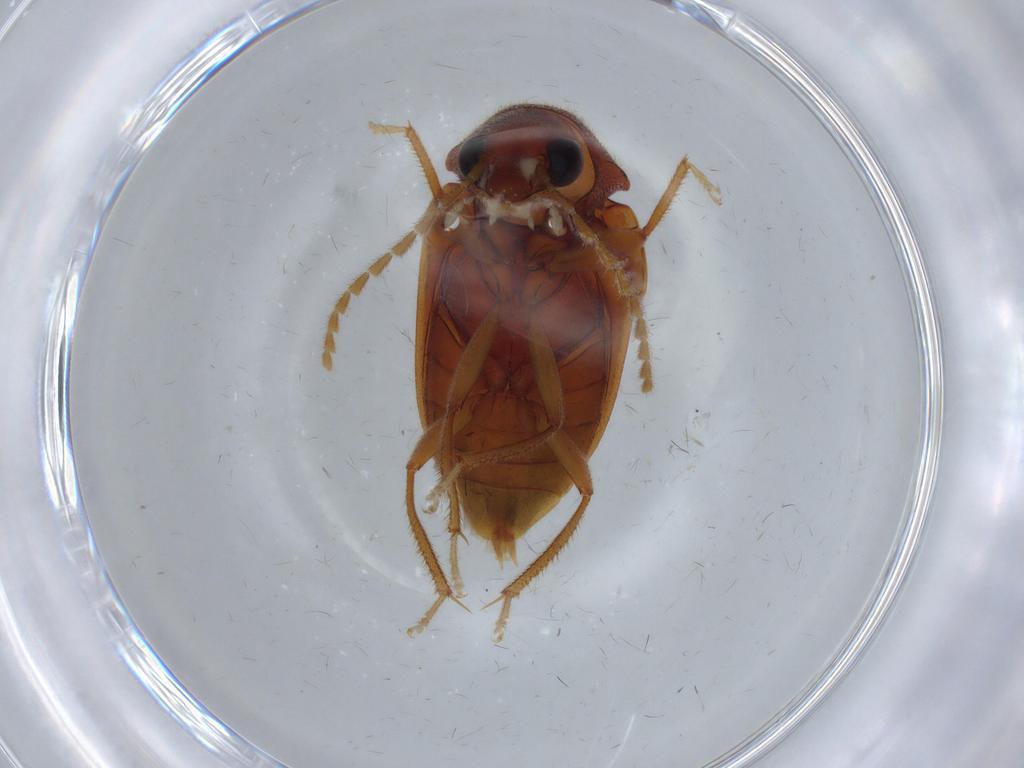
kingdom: Animalia
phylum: Arthropoda
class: Insecta
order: Coleoptera
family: Ptilodactylidae
